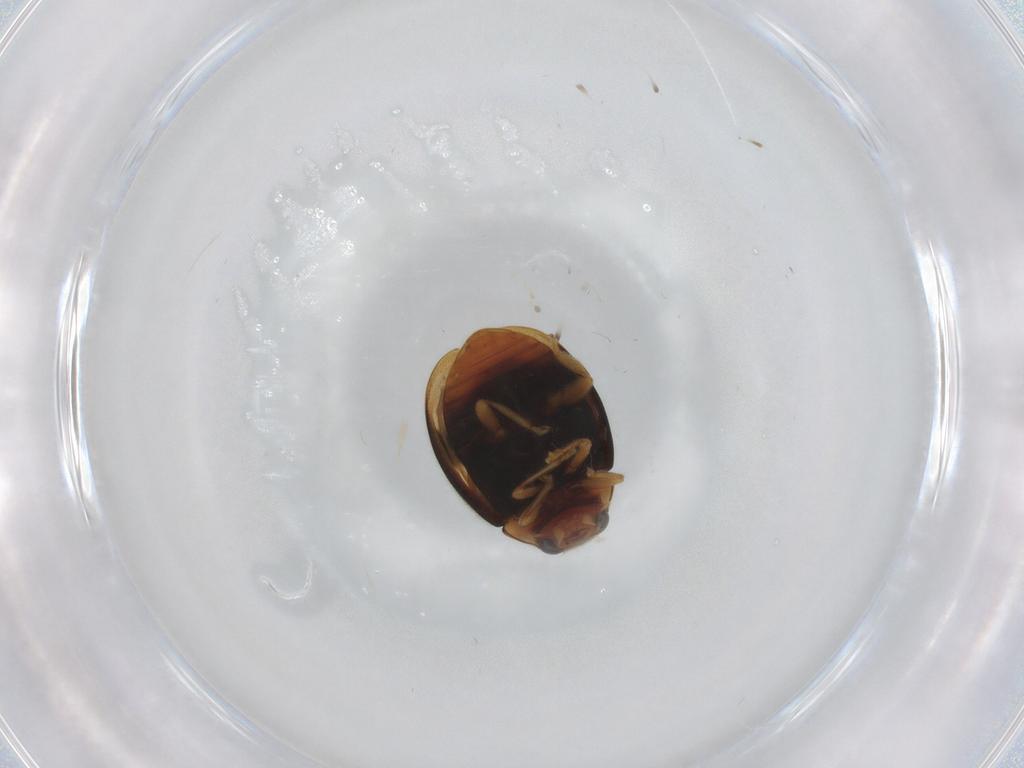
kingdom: Animalia
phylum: Arthropoda
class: Insecta
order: Coleoptera
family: Coccinellidae
